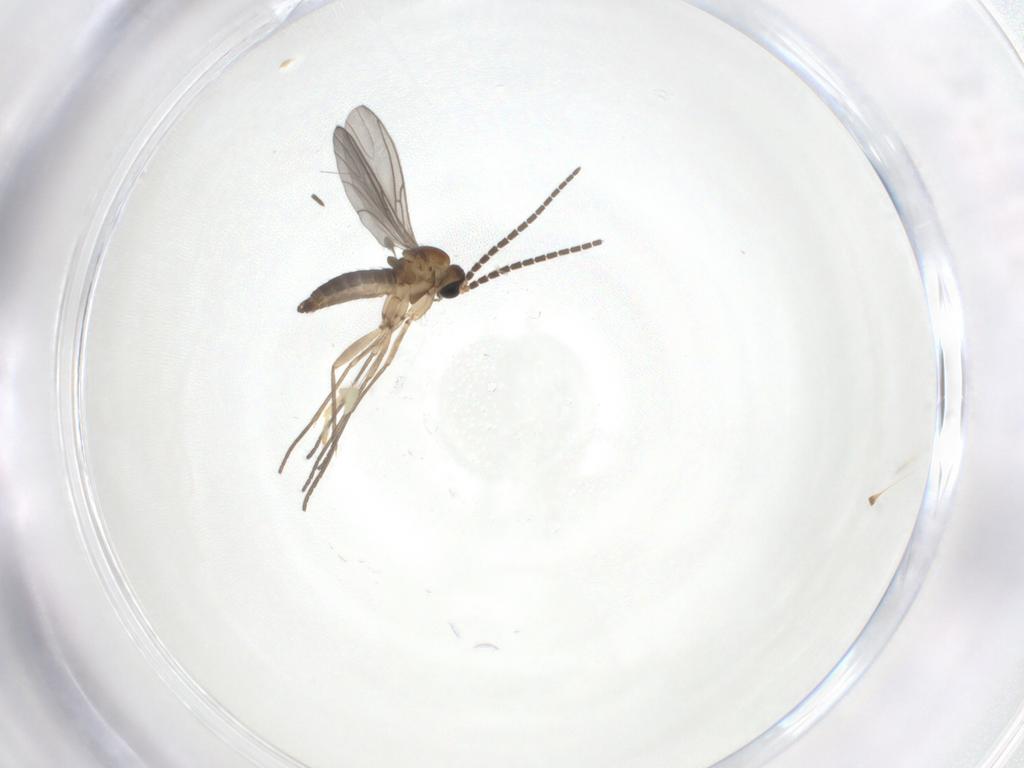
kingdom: Animalia
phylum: Arthropoda
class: Insecta
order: Diptera
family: Sciaridae
